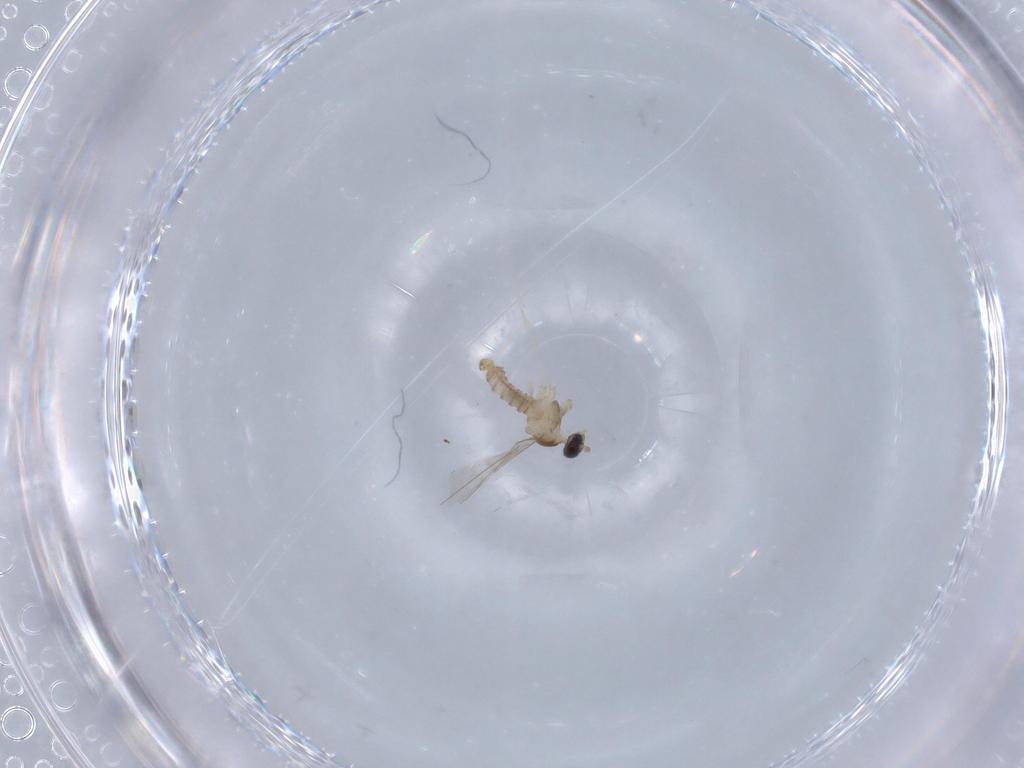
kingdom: Animalia
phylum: Arthropoda
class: Insecta
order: Diptera
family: Cecidomyiidae
